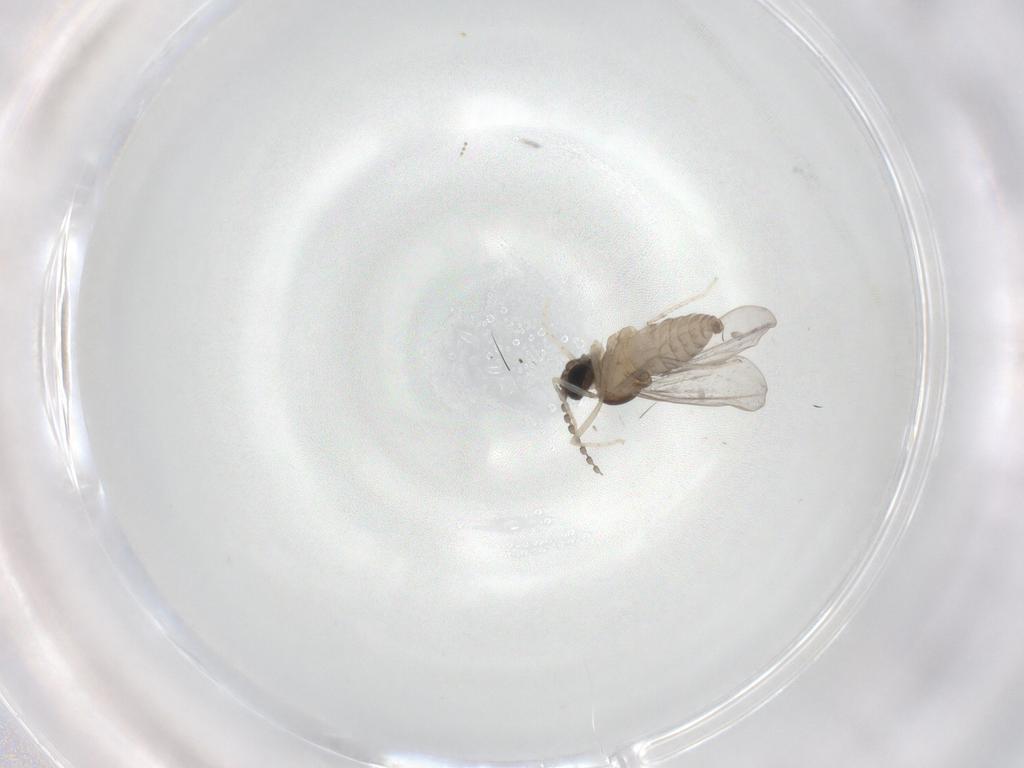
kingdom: Animalia
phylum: Arthropoda
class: Insecta
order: Diptera
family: Cecidomyiidae
